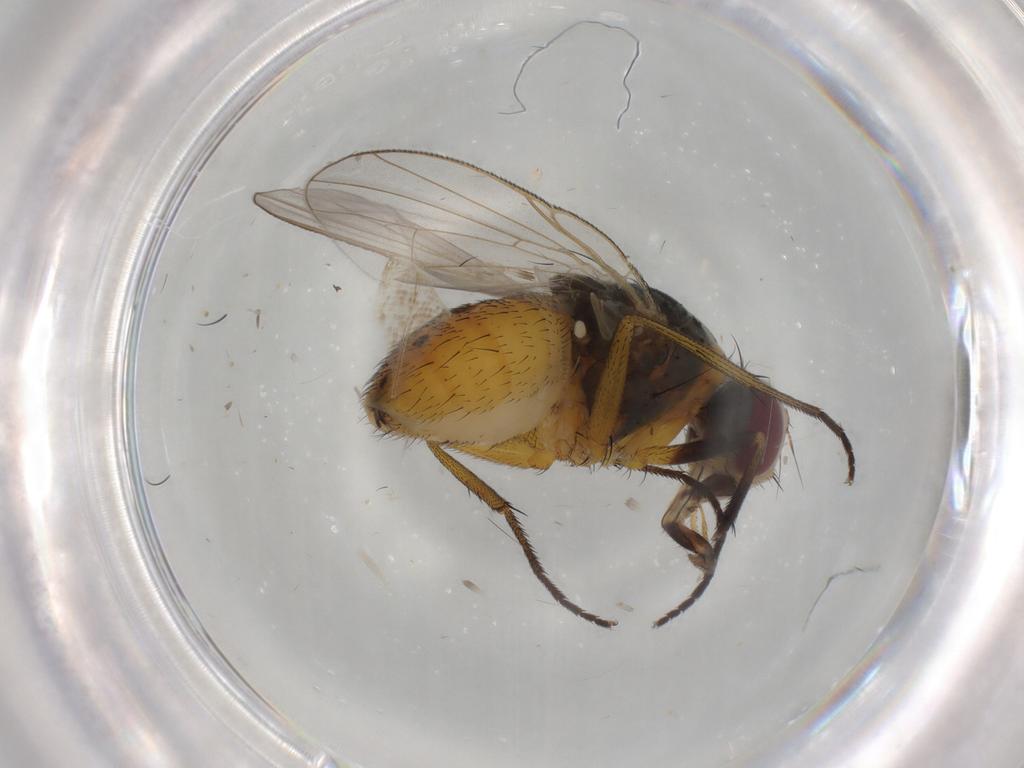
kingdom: Animalia
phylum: Arthropoda
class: Insecta
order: Diptera
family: Muscidae
